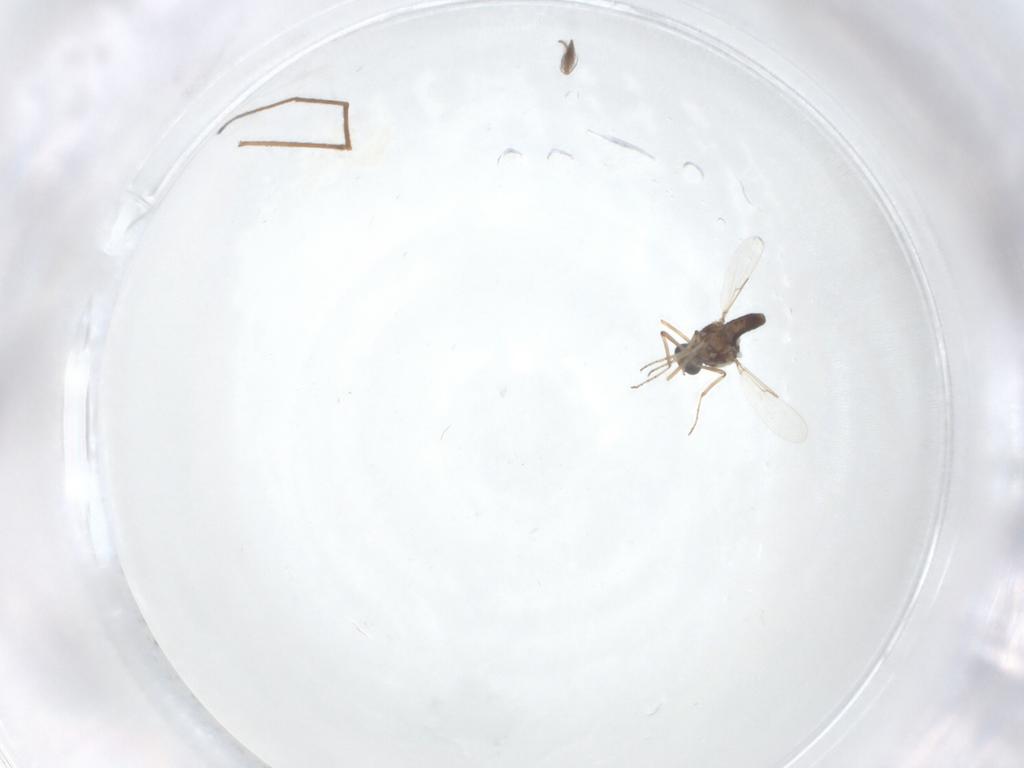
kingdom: Animalia
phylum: Arthropoda
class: Insecta
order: Diptera
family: Ceratopogonidae
